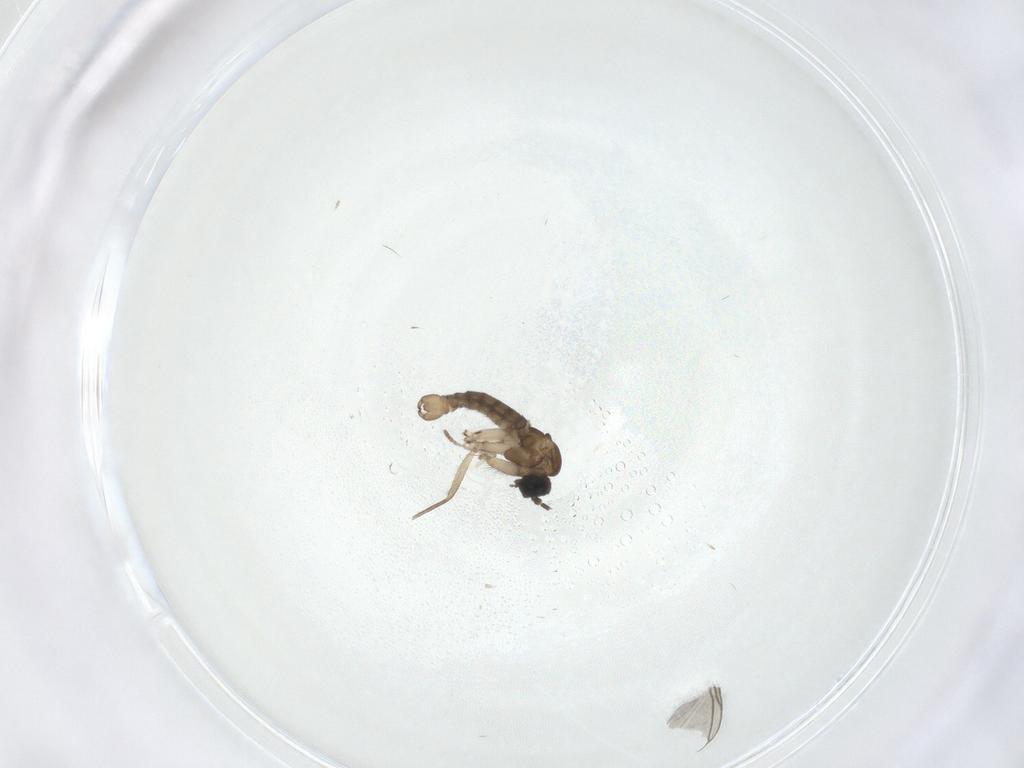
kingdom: Animalia
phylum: Arthropoda
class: Insecta
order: Diptera
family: Sciaridae
